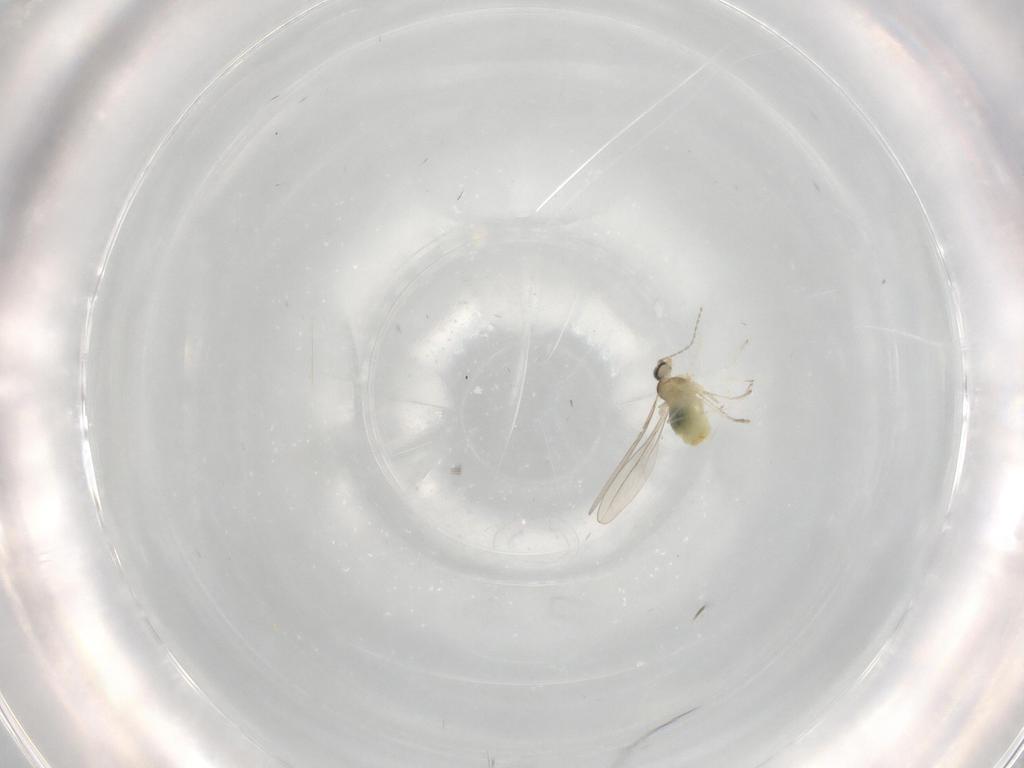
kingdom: Animalia
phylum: Arthropoda
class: Insecta
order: Diptera
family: Cecidomyiidae
